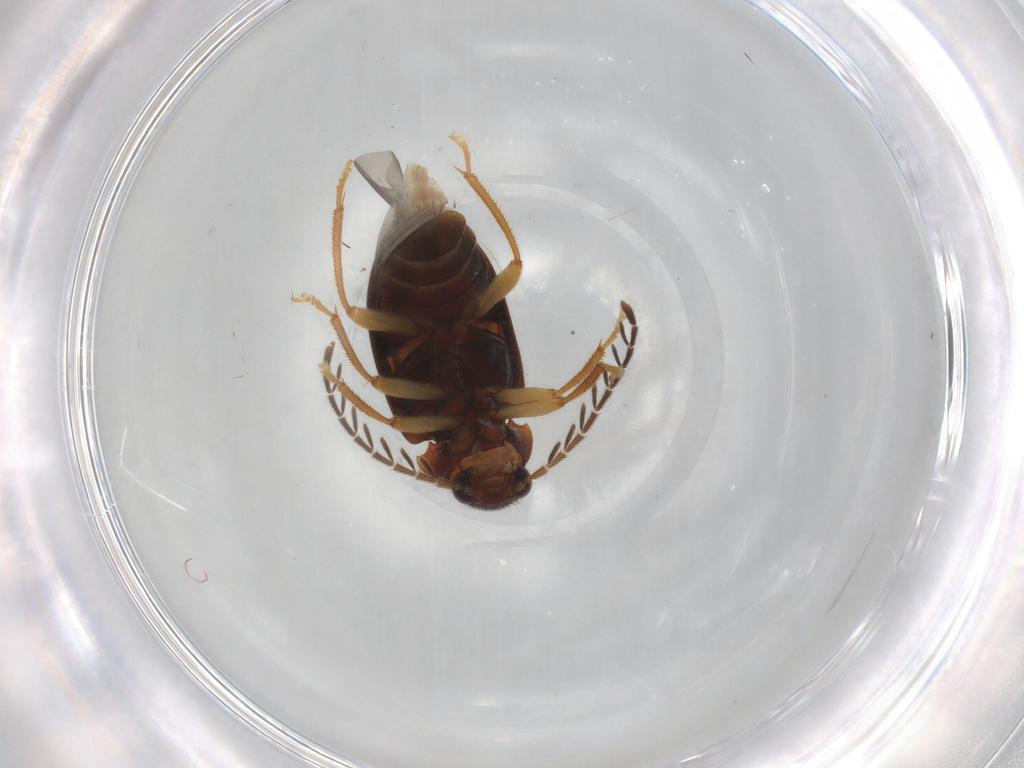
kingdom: Animalia
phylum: Arthropoda
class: Insecta
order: Coleoptera
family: Ptilodactylidae
